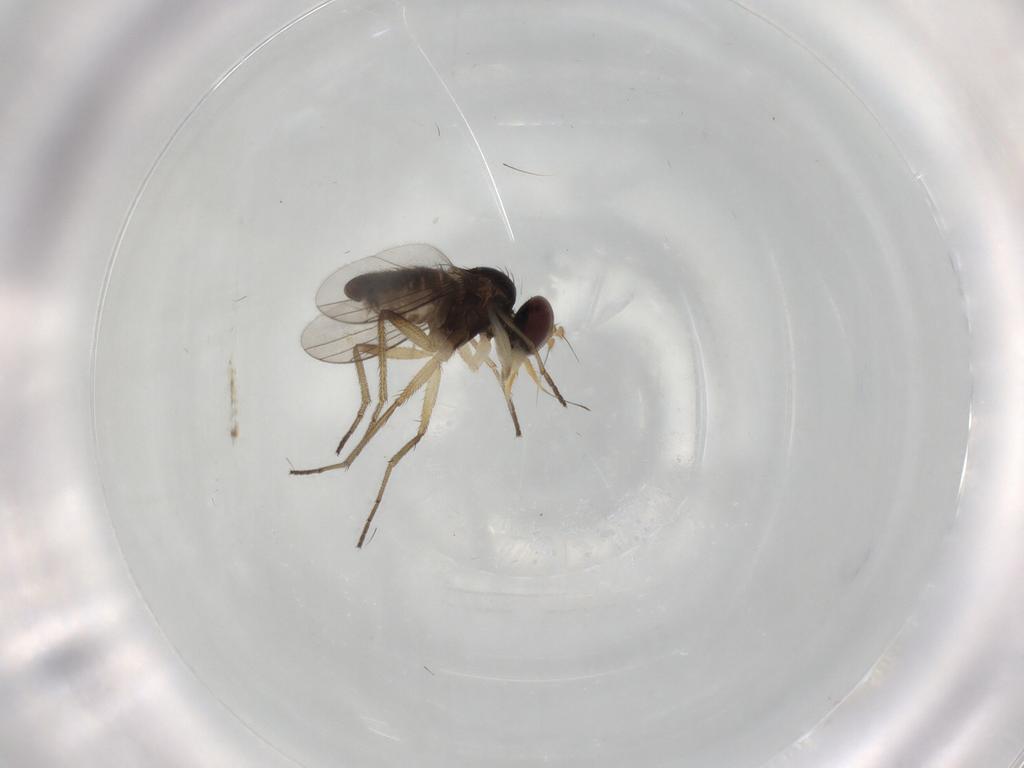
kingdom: Animalia
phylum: Arthropoda
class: Insecta
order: Diptera
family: Dolichopodidae
